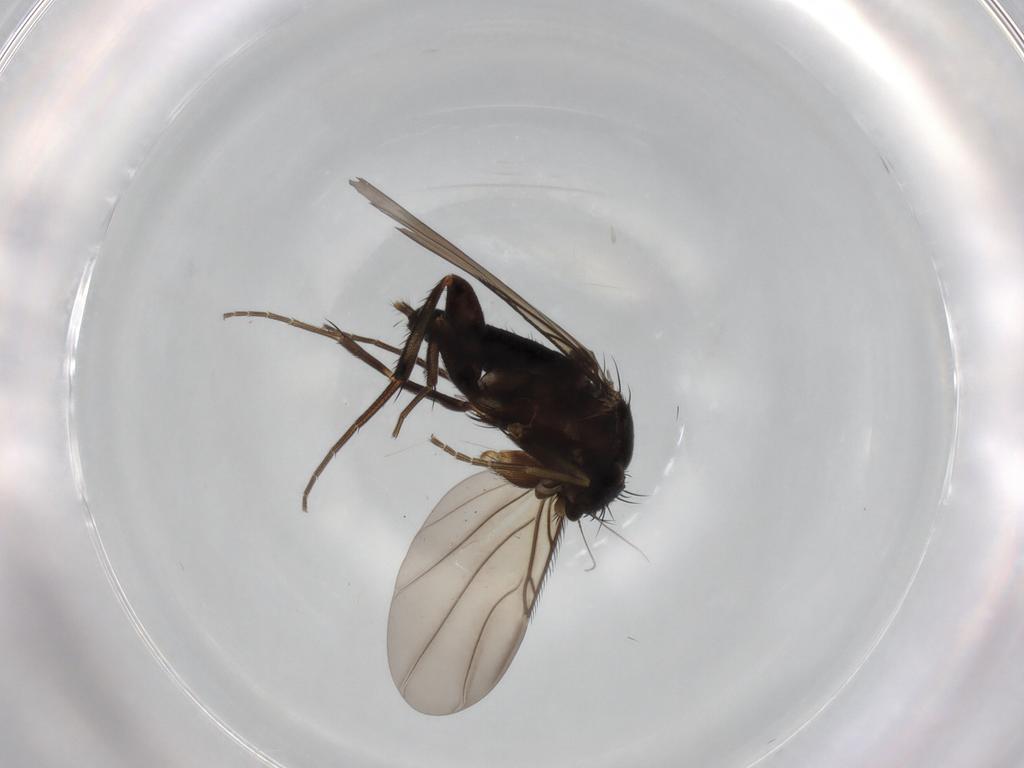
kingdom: Animalia
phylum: Arthropoda
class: Insecta
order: Diptera
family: Phoridae
